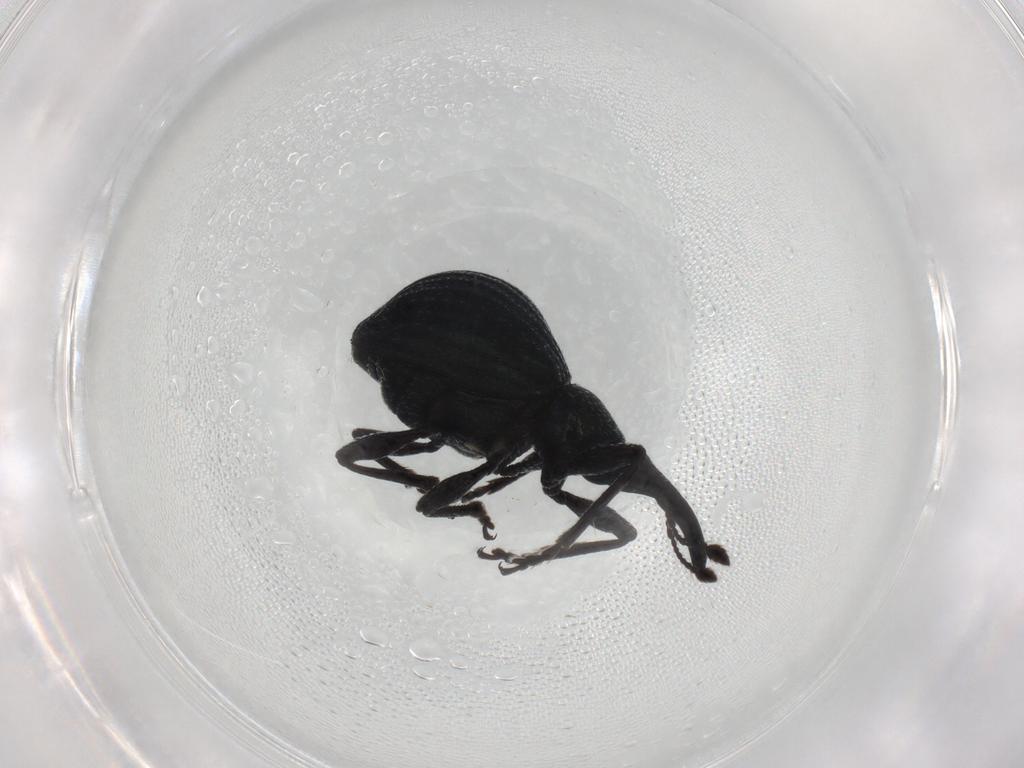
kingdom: Animalia
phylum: Arthropoda
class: Insecta
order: Coleoptera
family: Brentidae
